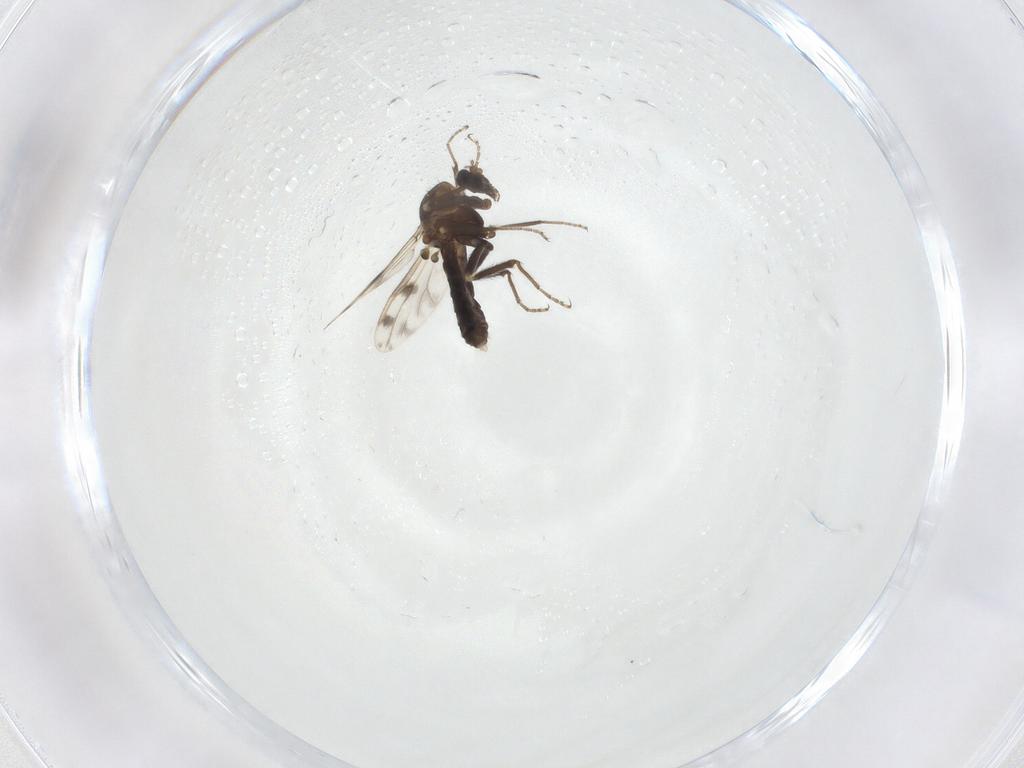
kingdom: Animalia
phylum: Arthropoda
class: Insecta
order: Diptera
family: Ceratopogonidae
